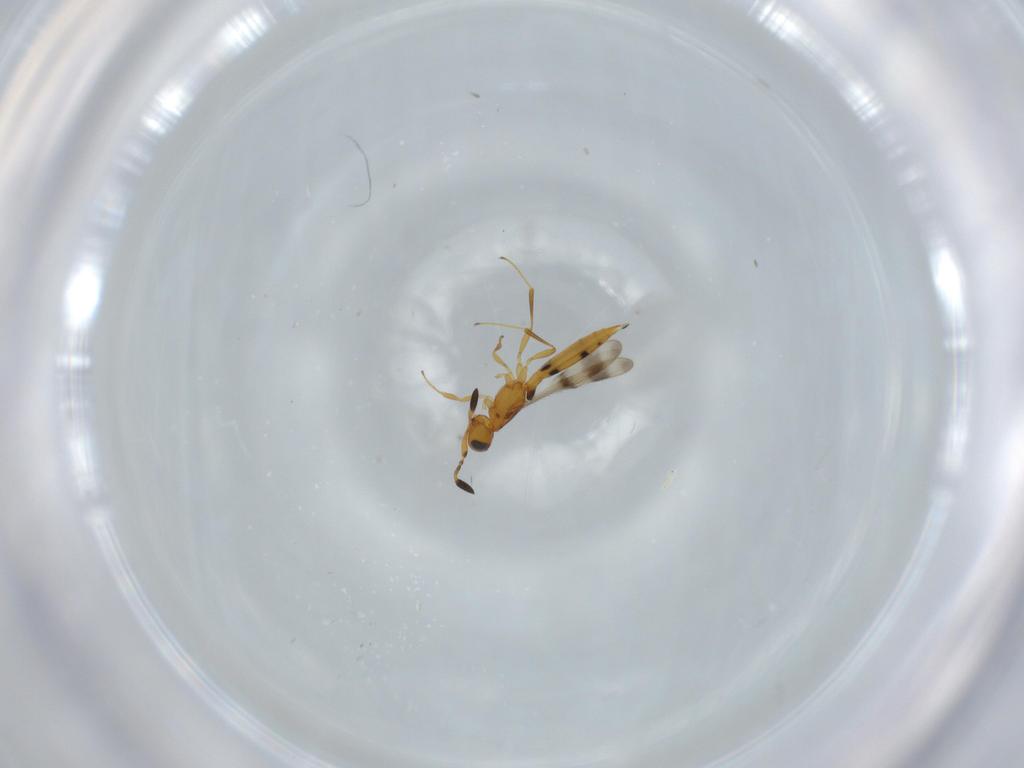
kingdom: Animalia
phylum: Arthropoda
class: Insecta
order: Hymenoptera
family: Scelionidae
